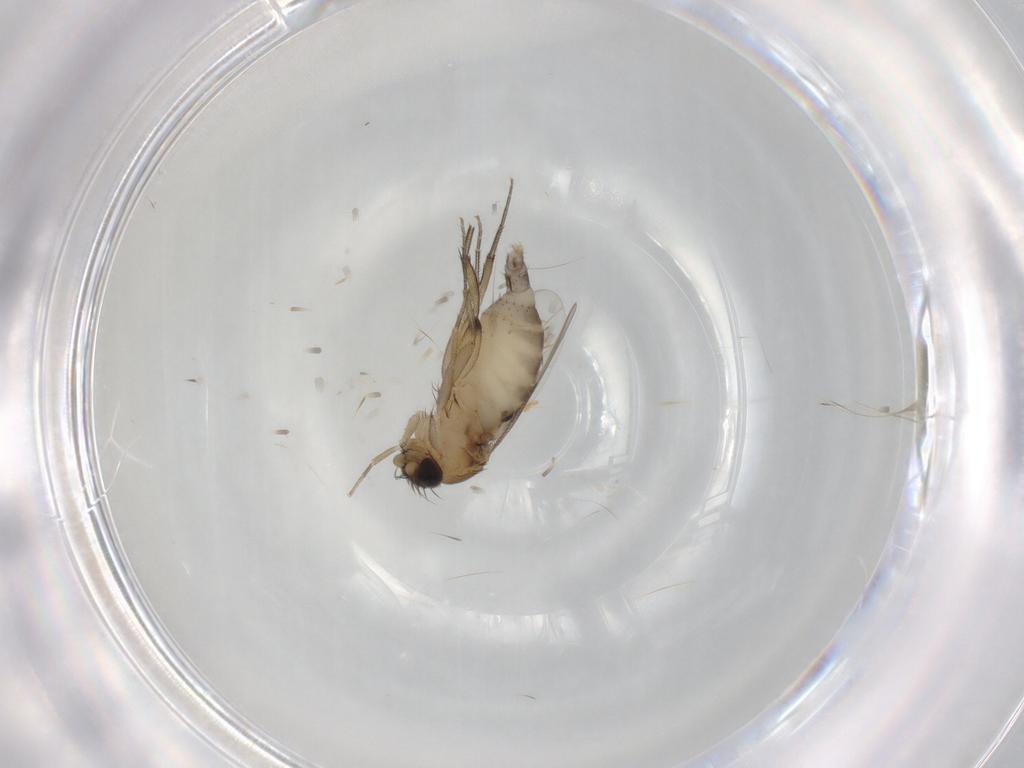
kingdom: Animalia
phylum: Arthropoda
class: Insecta
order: Diptera
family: Phoridae
